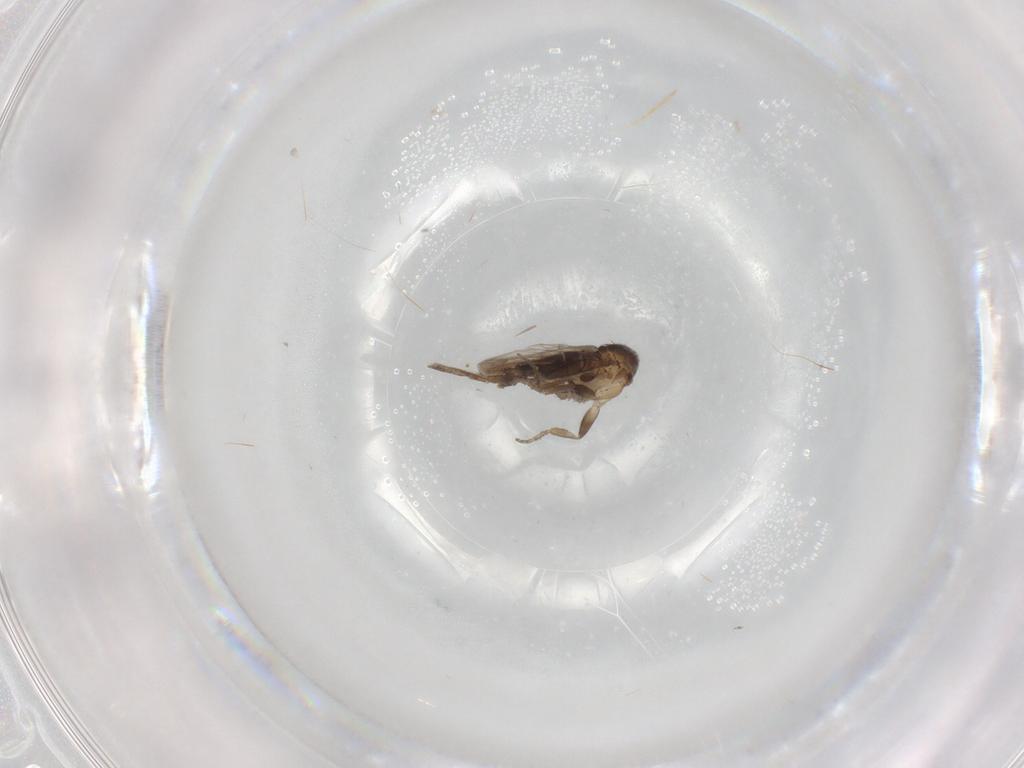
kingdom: Animalia
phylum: Arthropoda
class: Insecta
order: Diptera
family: Phoridae
